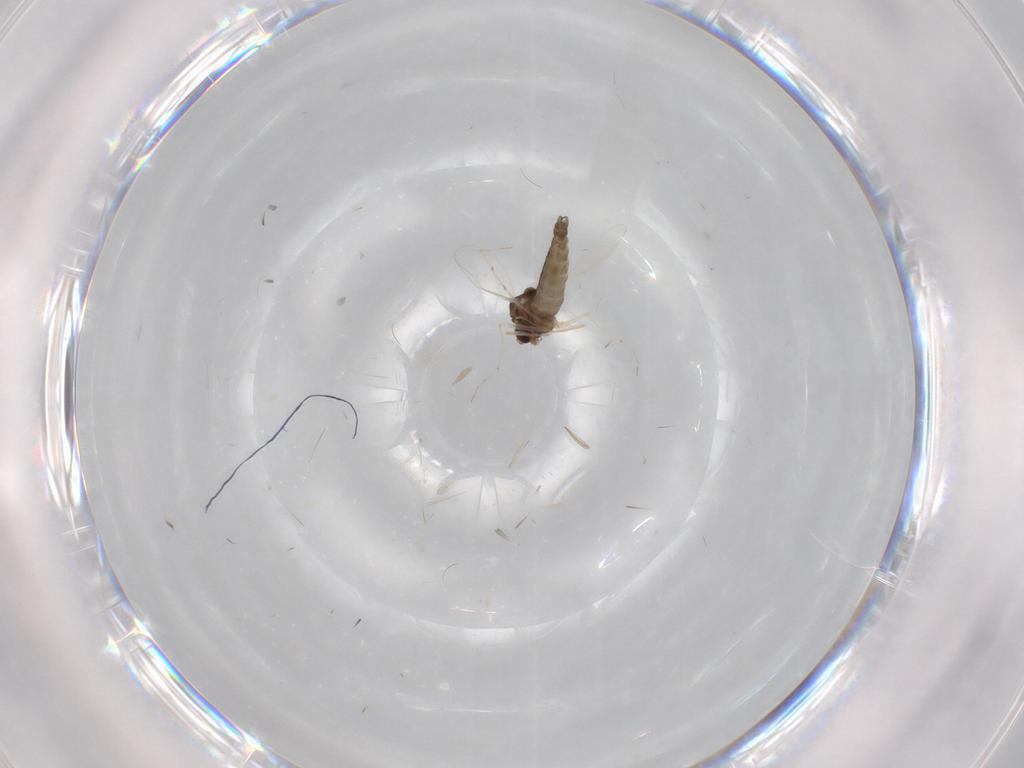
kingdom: Animalia
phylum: Arthropoda
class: Insecta
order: Diptera
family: Chironomidae
